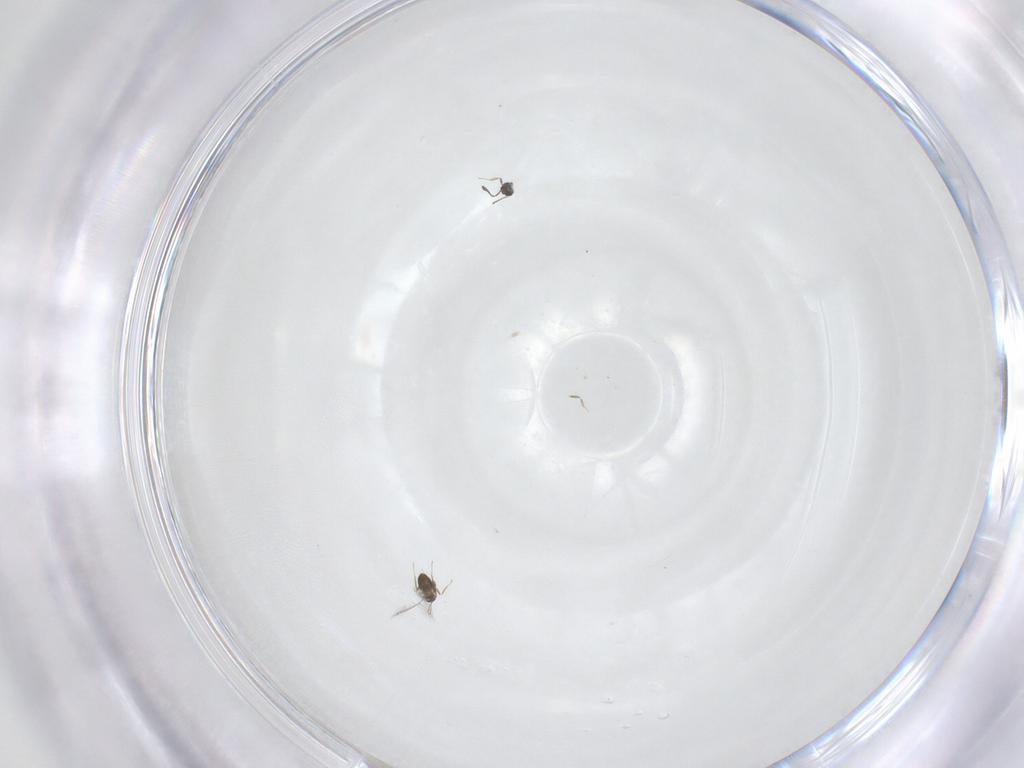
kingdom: Animalia
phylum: Arthropoda
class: Insecta
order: Hymenoptera
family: Mymaridae
